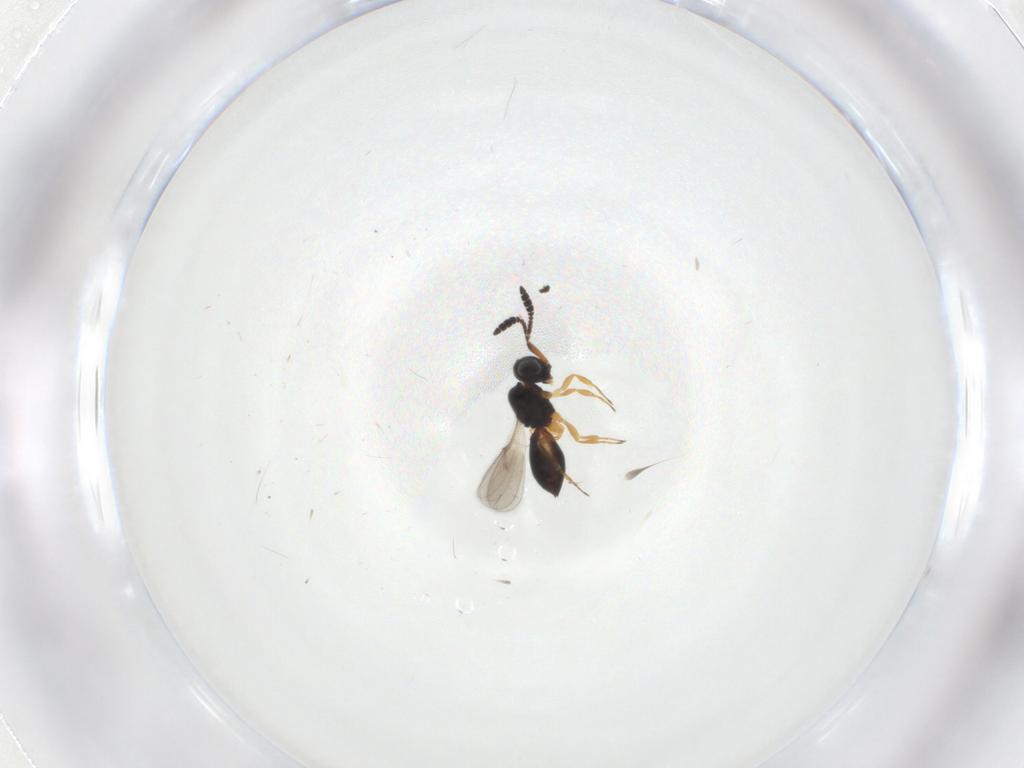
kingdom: Animalia
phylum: Arthropoda
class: Insecta
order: Hymenoptera
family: Scelionidae
